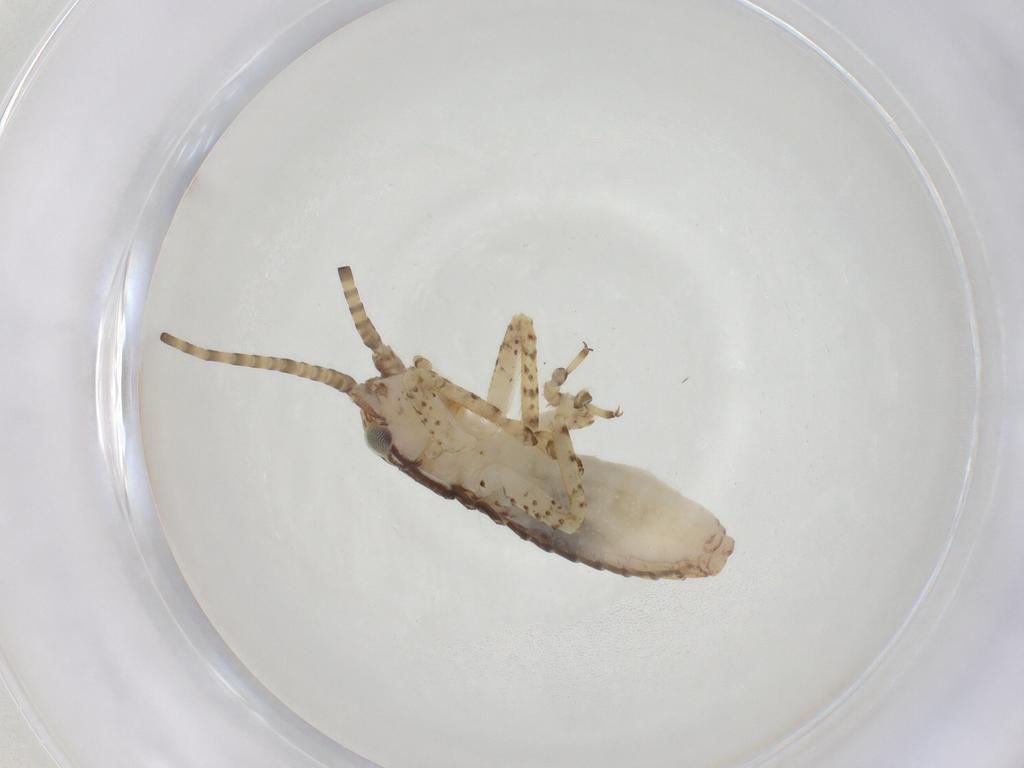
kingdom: Animalia
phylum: Arthropoda
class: Insecta
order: Orthoptera
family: Gryllidae
